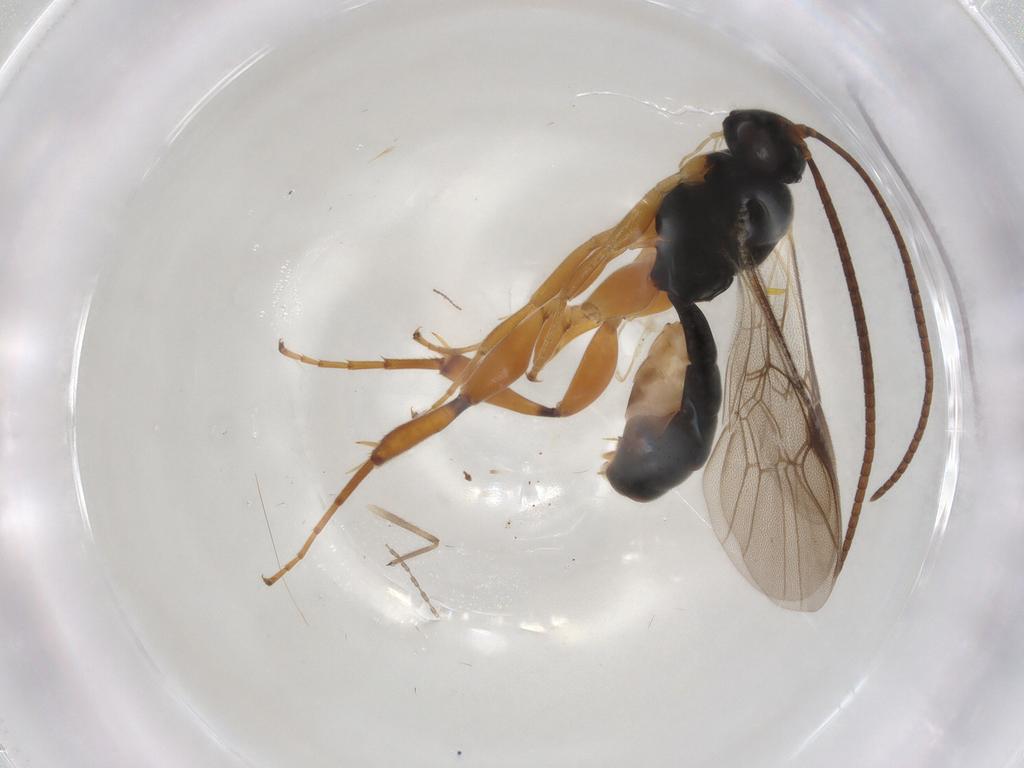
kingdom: Animalia
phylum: Arthropoda
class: Insecta
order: Hymenoptera
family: Ichneumonidae
